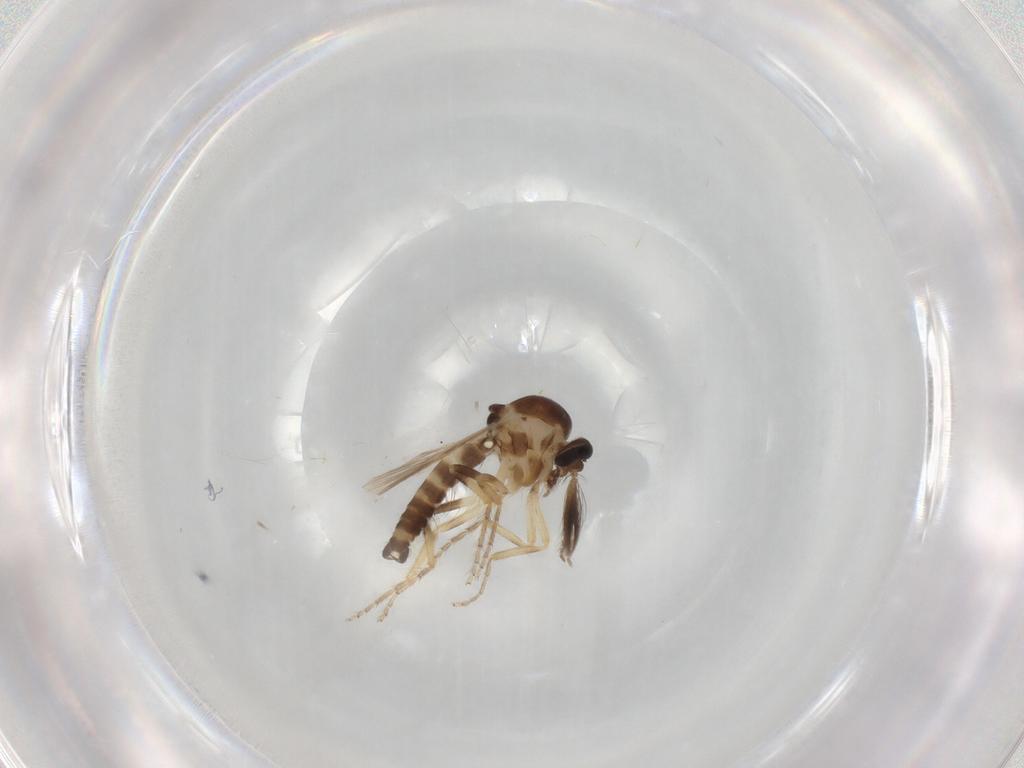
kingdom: Animalia
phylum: Arthropoda
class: Insecta
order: Diptera
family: Ceratopogonidae
